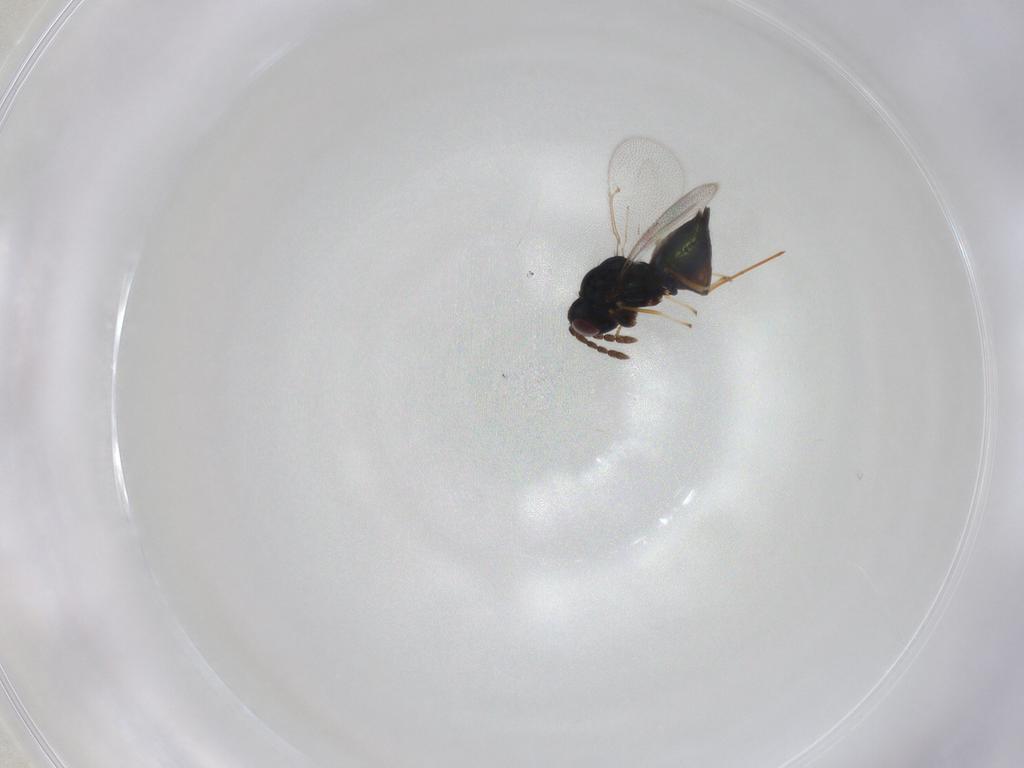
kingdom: Animalia
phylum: Arthropoda
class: Insecta
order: Hymenoptera
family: Eulophidae
